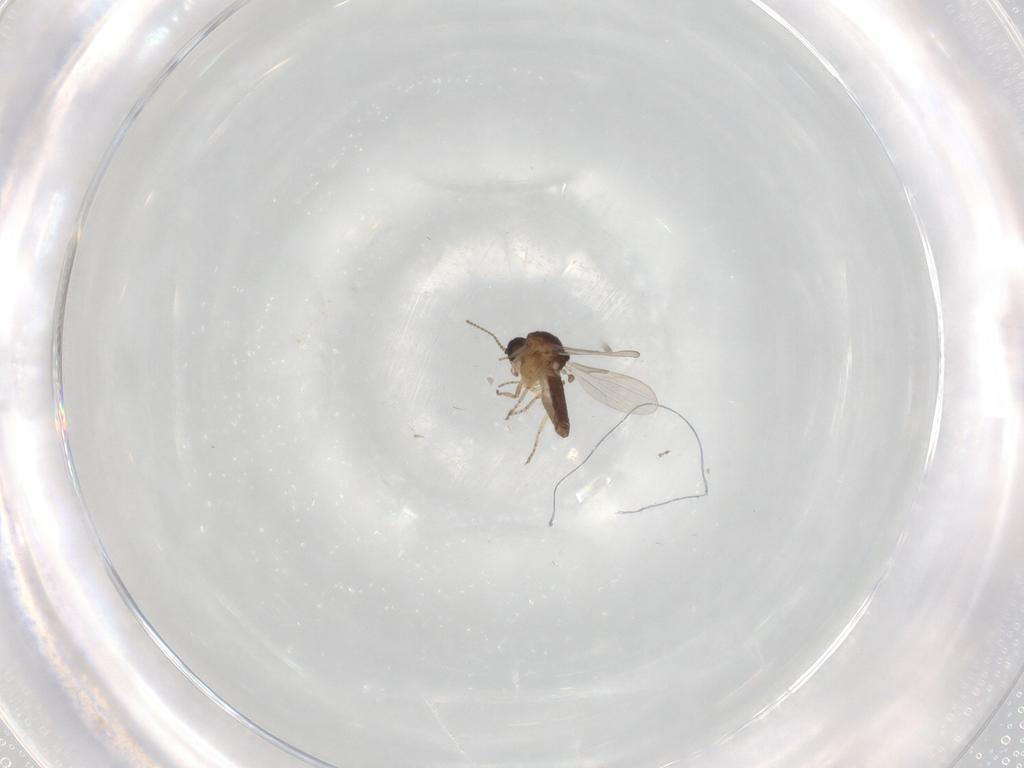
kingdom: Animalia
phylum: Arthropoda
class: Insecta
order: Diptera
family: Ceratopogonidae
